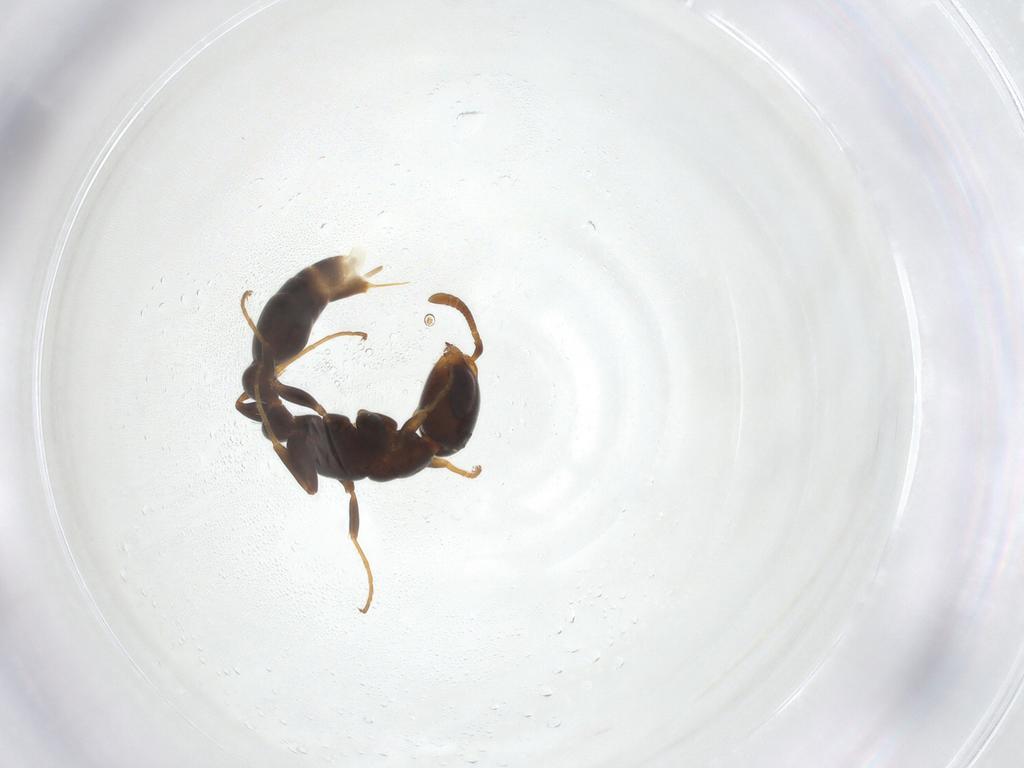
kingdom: Animalia
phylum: Arthropoda
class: Insecta
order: Hymenoptera
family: Formicidae
